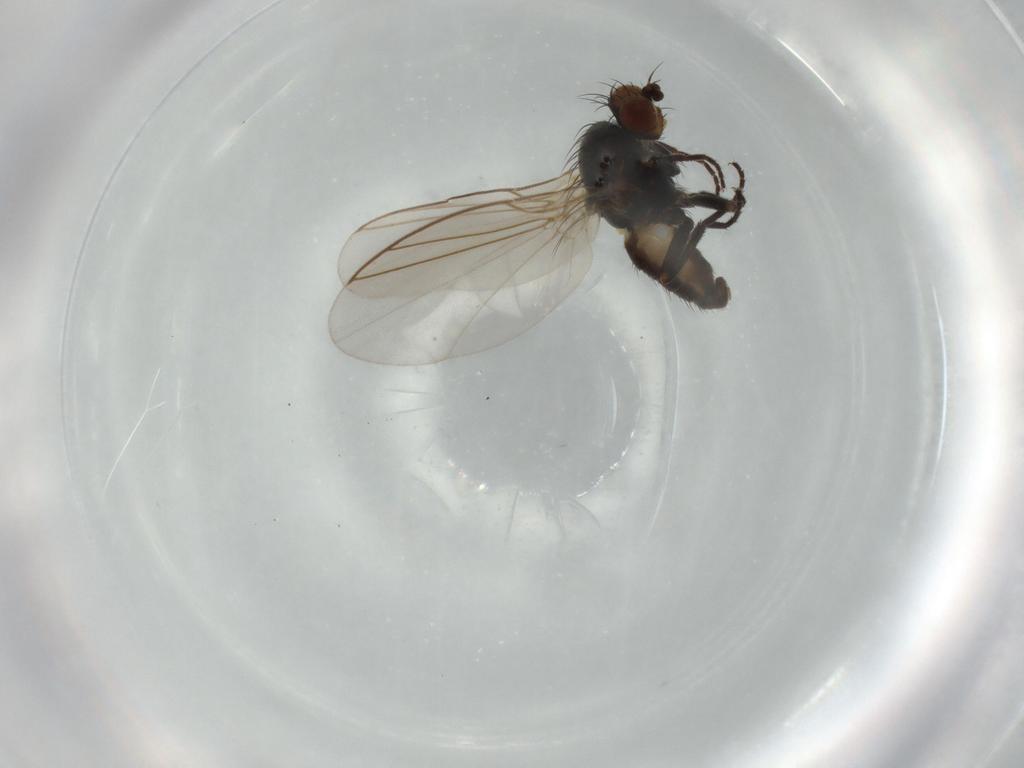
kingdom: Animalia
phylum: Arthropoda
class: Insecta
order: Diptera
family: Agromyzidae
